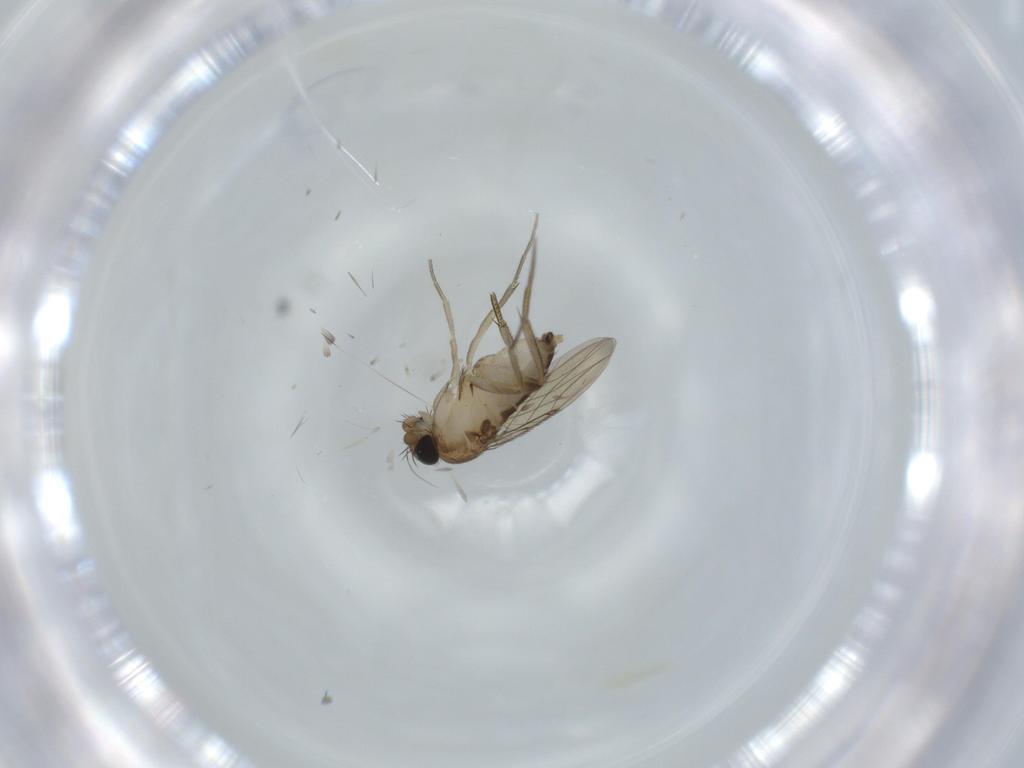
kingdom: Animalia
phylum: Arthropoda
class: Insecta
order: Diptera
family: Phoridae
